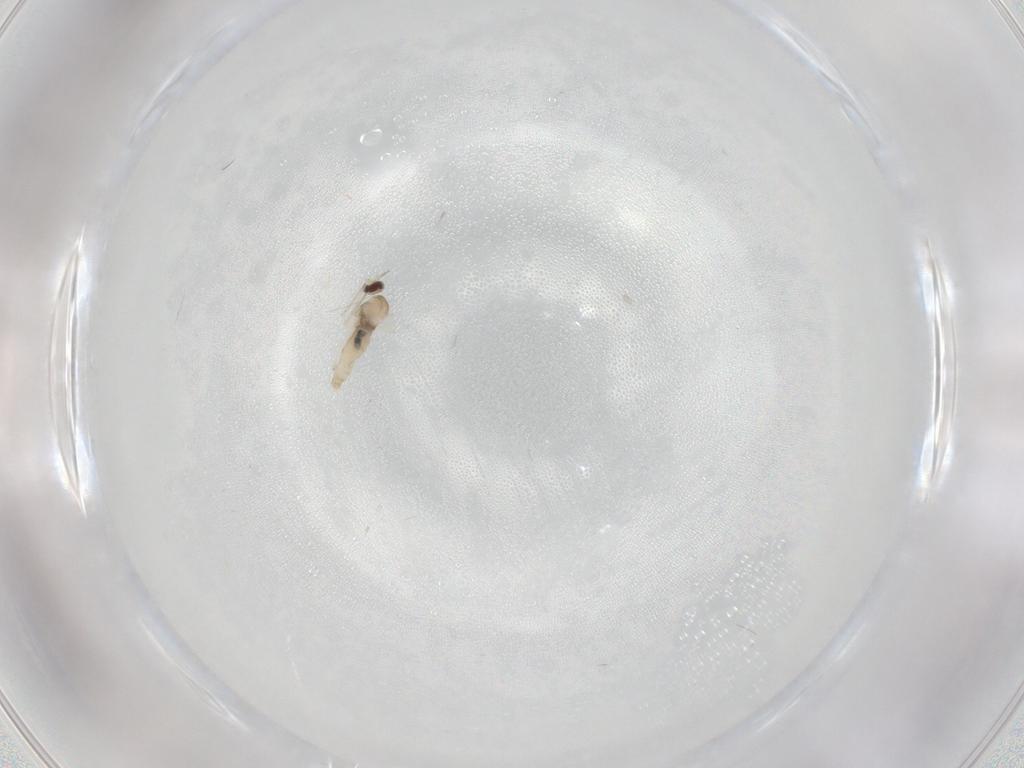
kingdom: Animalia
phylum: Arthropoda
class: Insecta
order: Diptera
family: Cecidomyiidae
